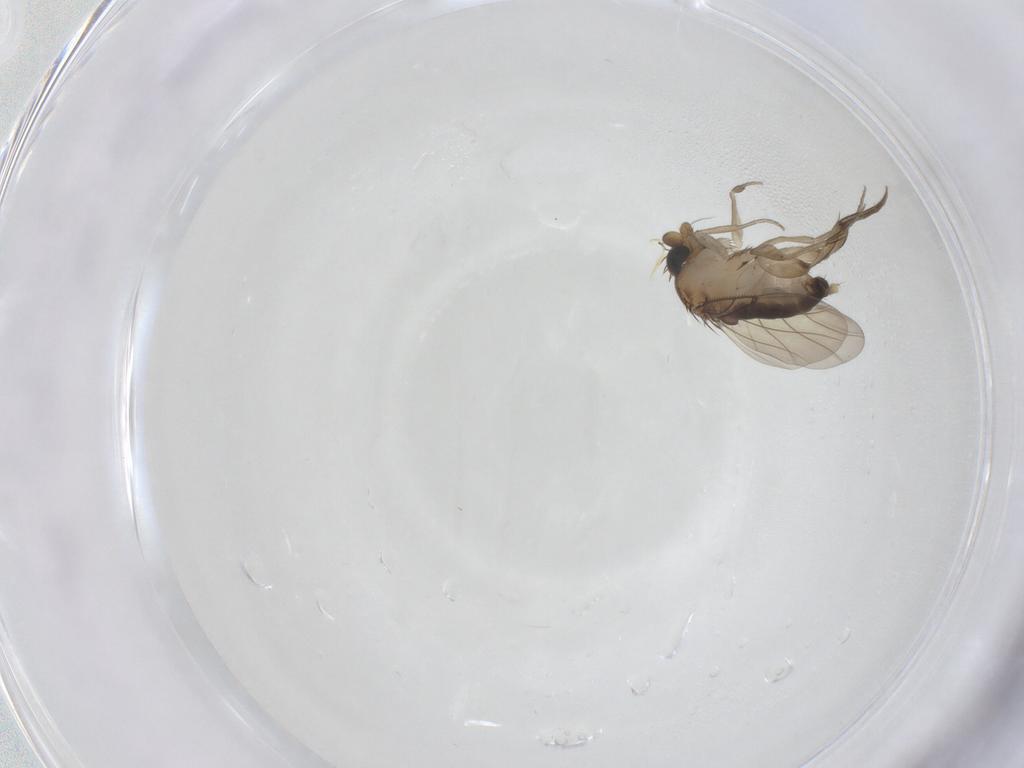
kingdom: Animalia
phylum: Arthropoda
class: Insecta
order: Diptera
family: Phoridae
